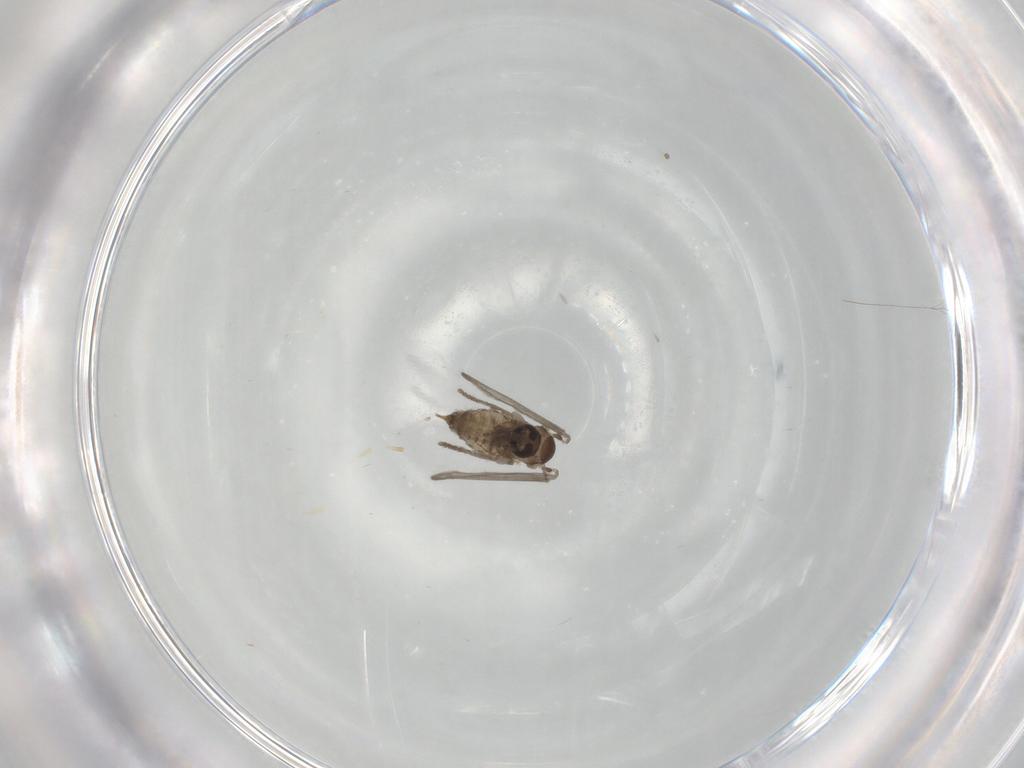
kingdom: Animalia
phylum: Arthropoda
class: Insecta
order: Diptera
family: Psychodidae
